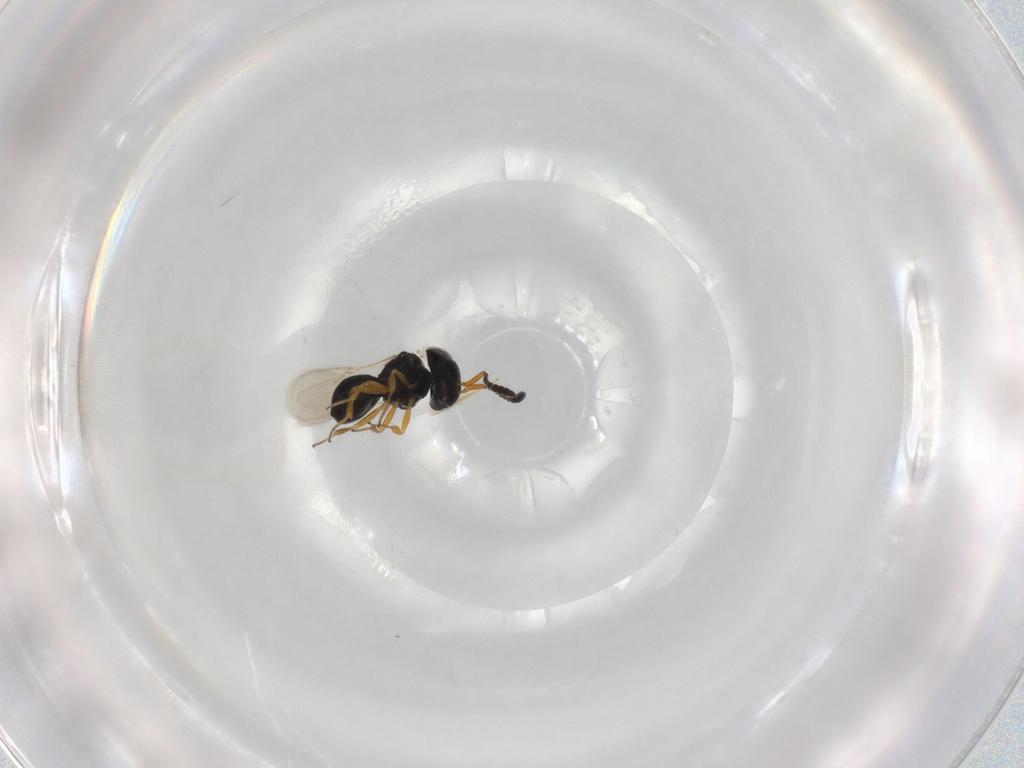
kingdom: Animalia
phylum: Arthropoda
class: Insecta
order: Hymenoptera
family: Scelionidae
